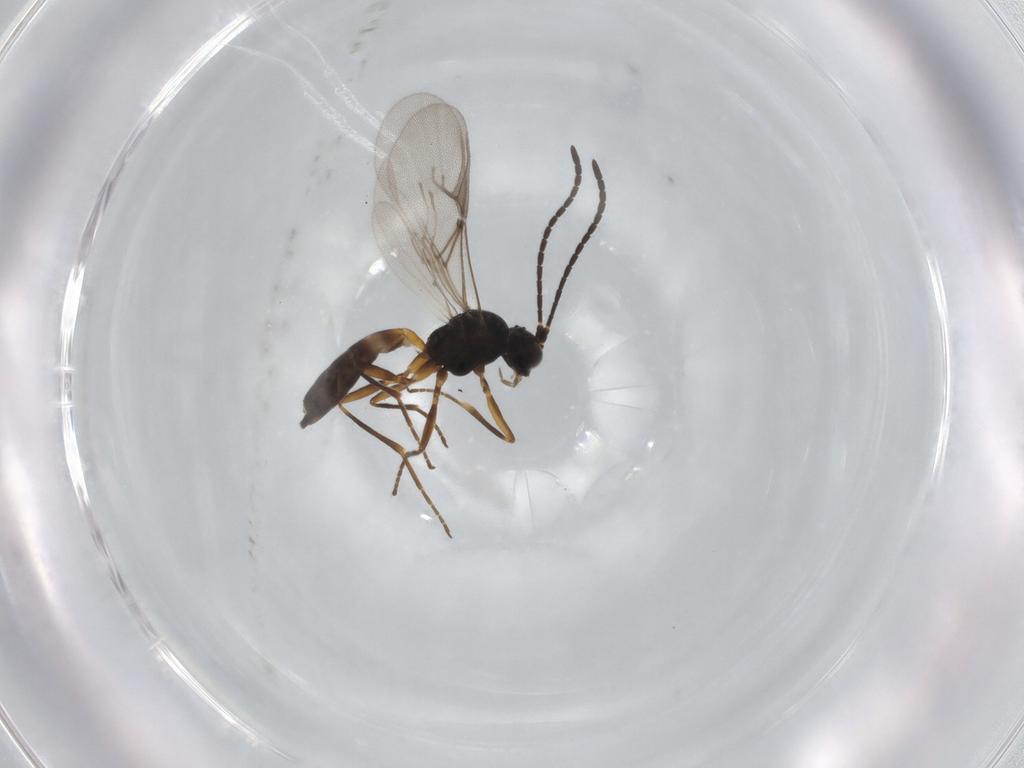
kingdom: Animalia
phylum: Arthropoda
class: Insecta
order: Hymenoptera
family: Braconidae
